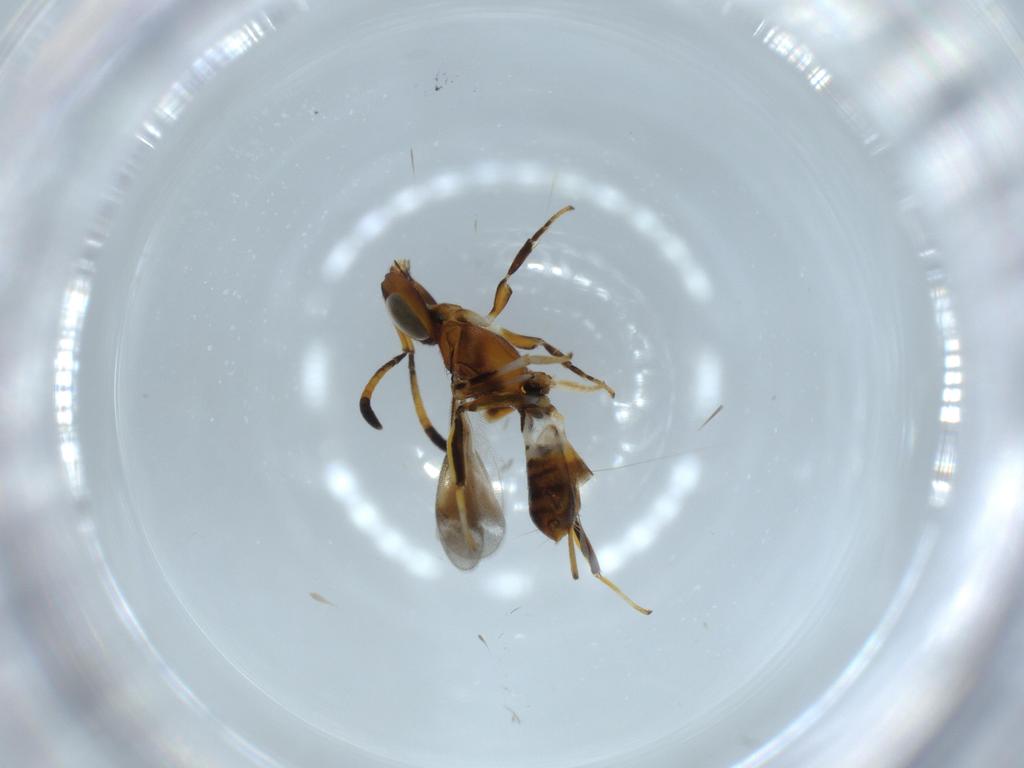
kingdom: Animalia
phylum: Arthropoda
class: Insecta
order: Hymenoptera
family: Eupelmidae
